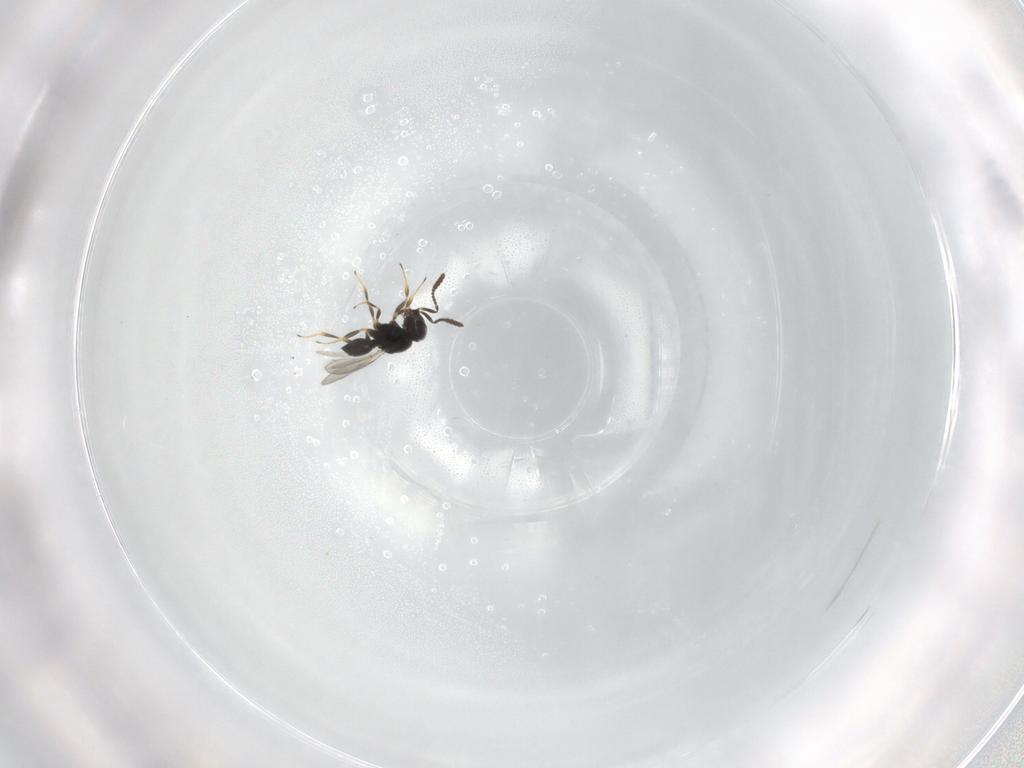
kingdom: Animalia
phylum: Arthropoda
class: Insecta
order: Hymenoptera
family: Scelionidae
